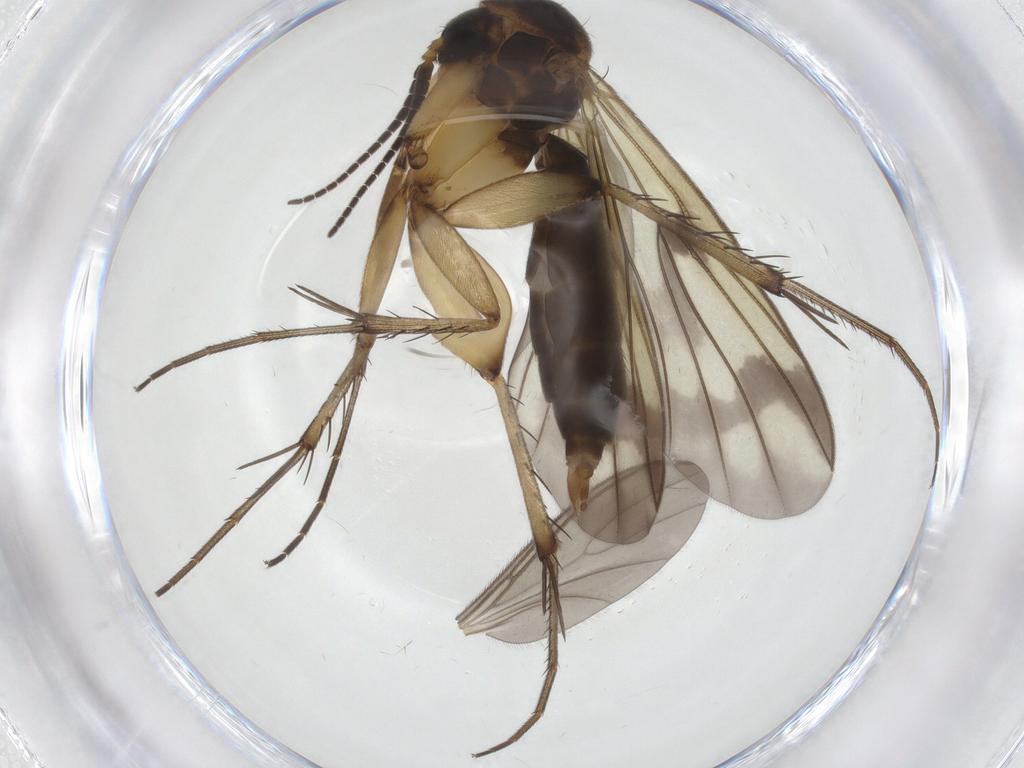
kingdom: Animalia
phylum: Arthropoda
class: Insecta
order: Diptera
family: Mycetophilidae
